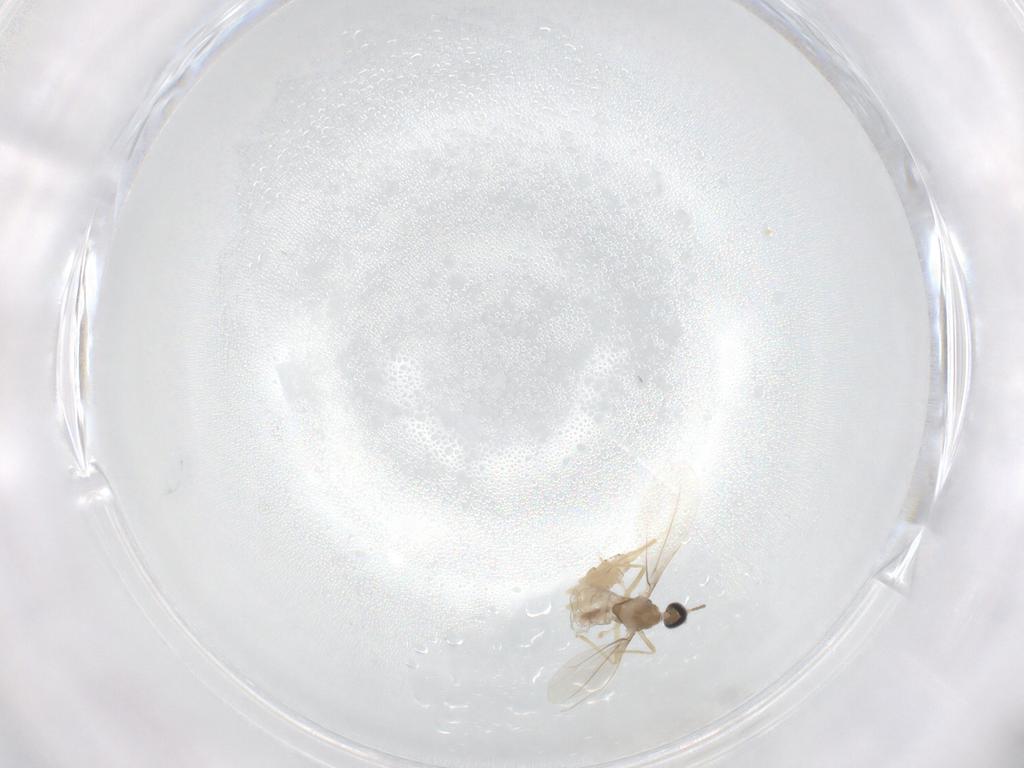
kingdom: Animalia
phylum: Arthropoda
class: Insecta
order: Diptera
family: Cecidomyiidae
